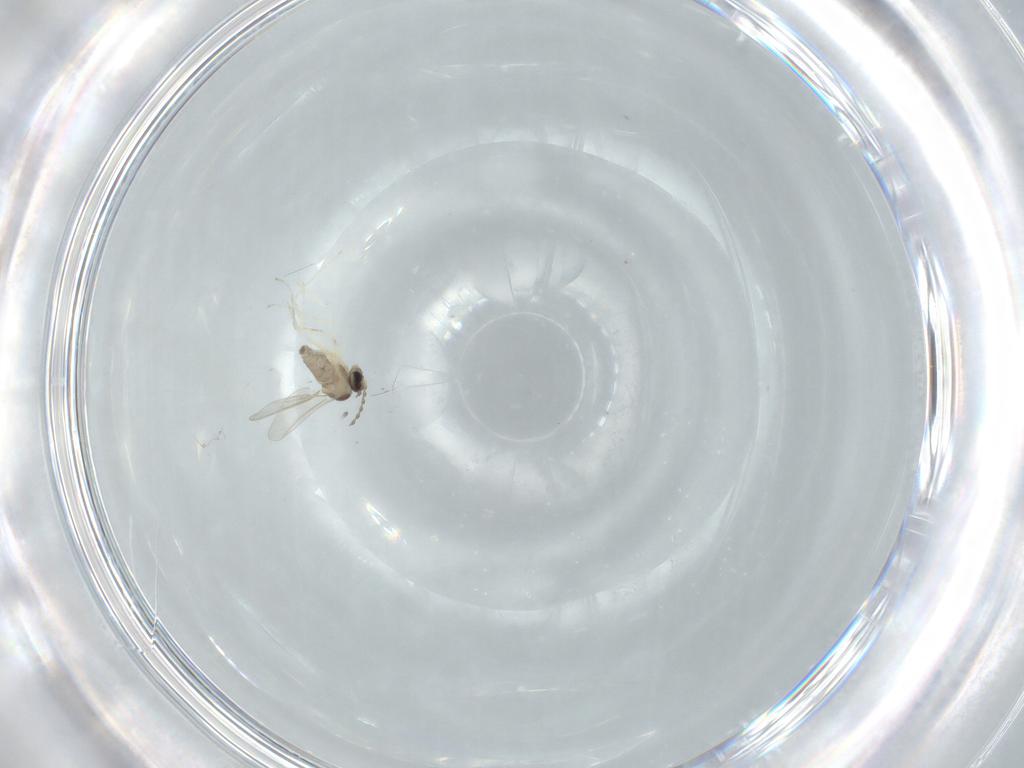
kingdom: Animalia
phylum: Arthropoda
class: Insecta
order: Diptera
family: Cecidomyiidae
